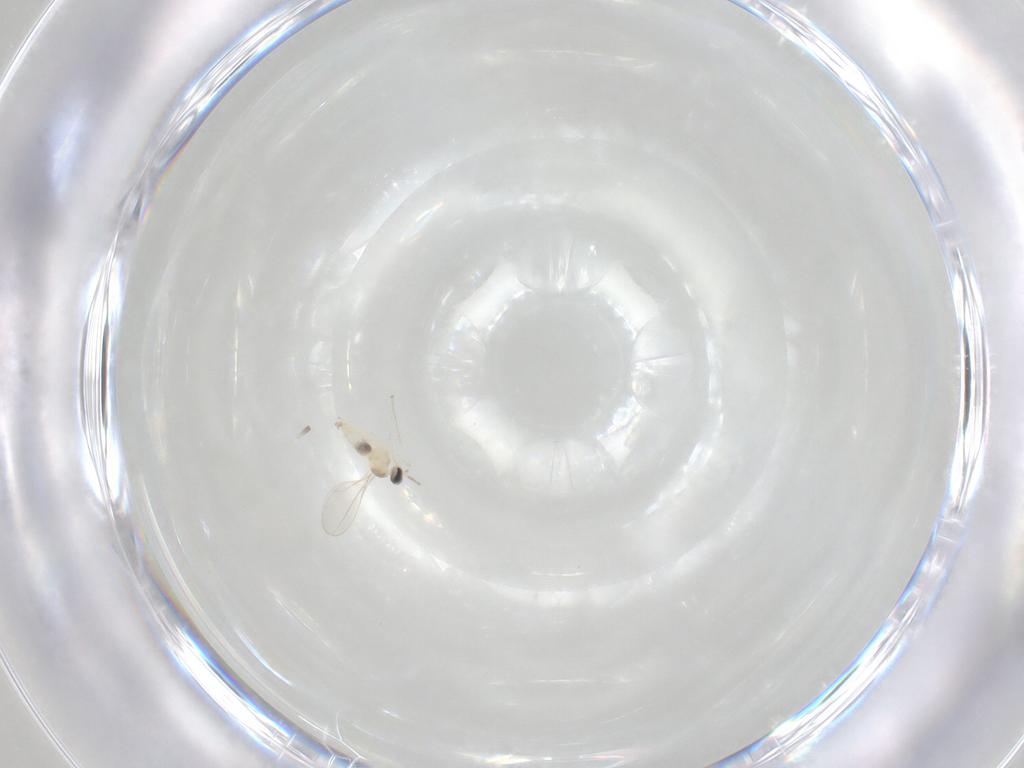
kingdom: Animalia
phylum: Arthropoda
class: Insecta
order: Diptera
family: Cecidomyiidae
